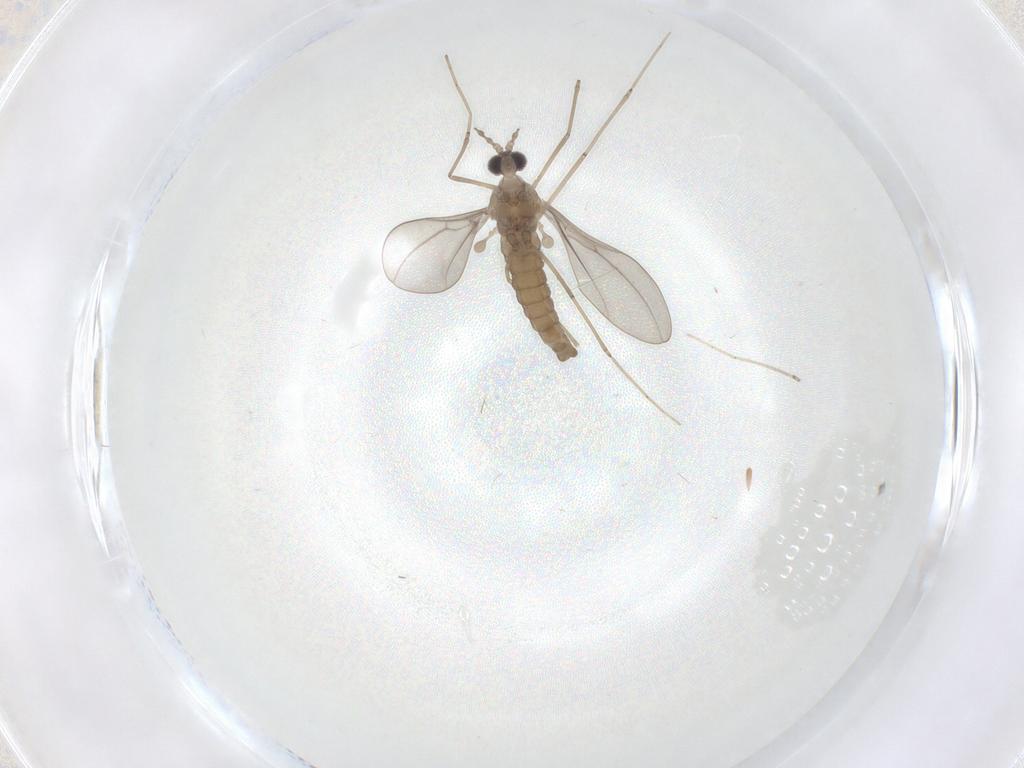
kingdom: Animalia
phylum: Arthropoda
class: Insecta
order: Diptera
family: Cecidomyiidae
